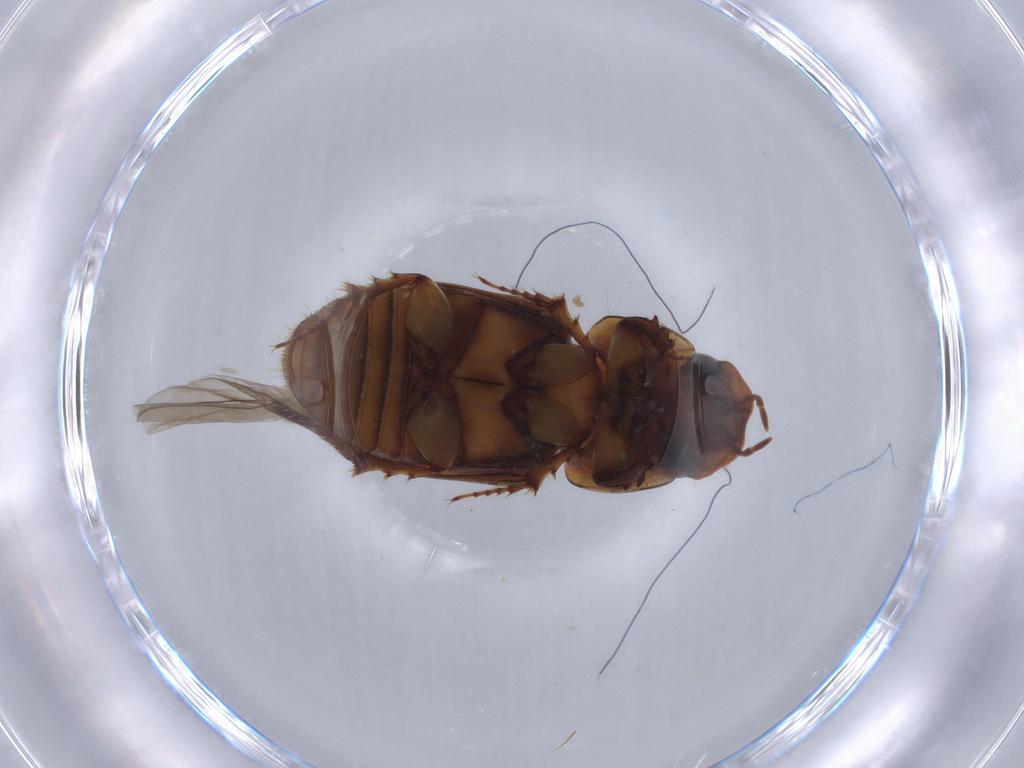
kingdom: Animalia
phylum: Arthropoda
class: Insecta
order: Coleoptera
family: Scarabaeidae
